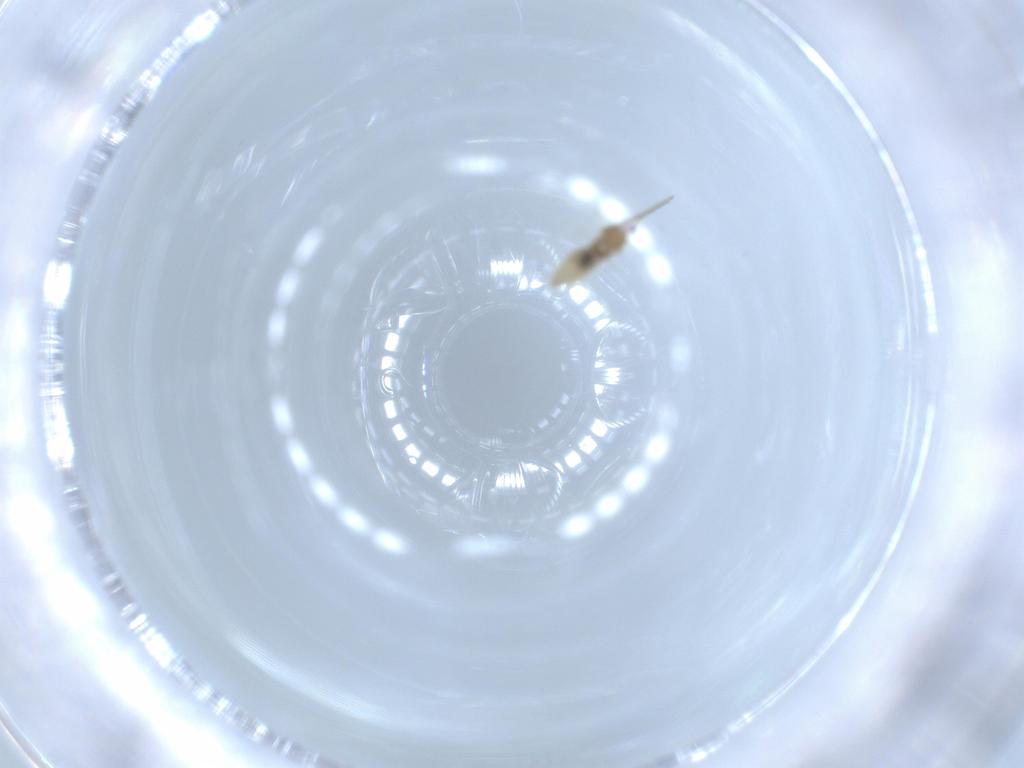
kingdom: Animalia
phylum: Arthropoda
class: Insecta
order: Diptera
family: Cecidomyiidae
